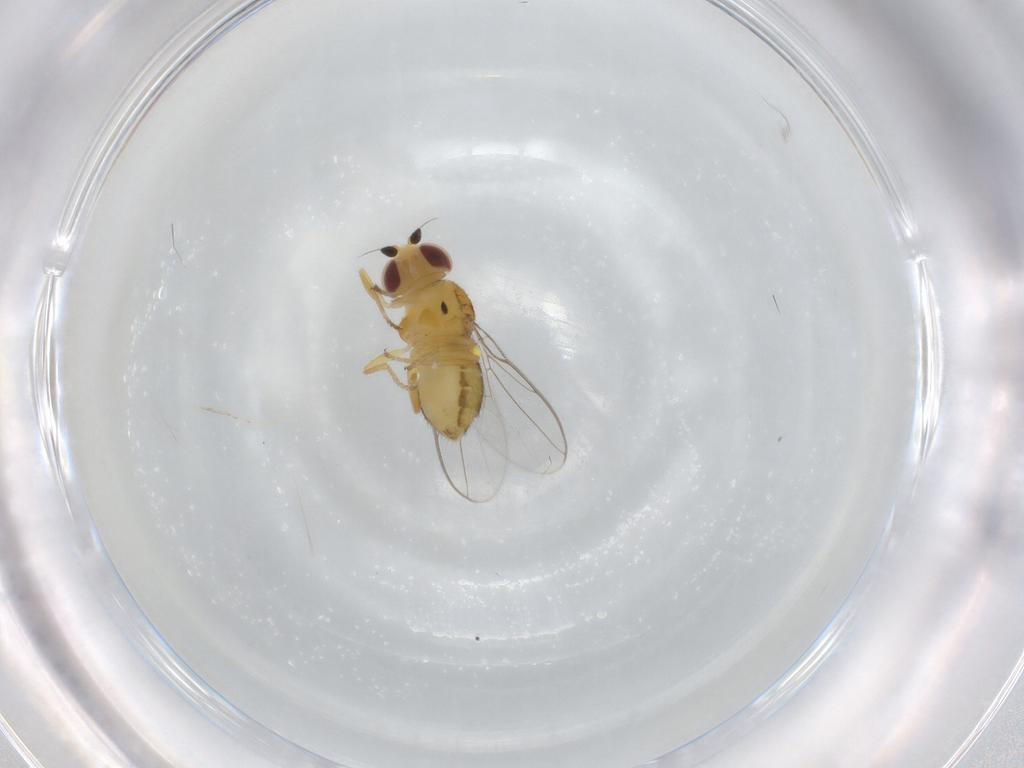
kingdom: Animalia
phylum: Arthropoda
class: Insecta
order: Diptera
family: Chloropidae
